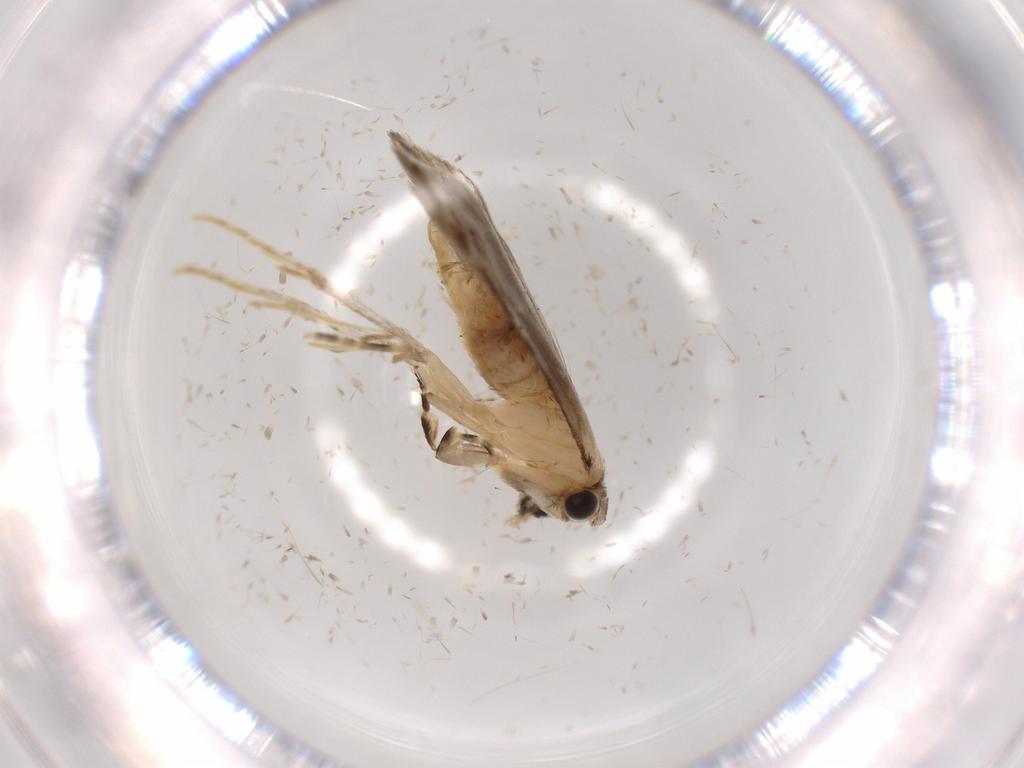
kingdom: Animalia
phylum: Arthropoda
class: Insecta
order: Lepidoptera
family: Tineidae
